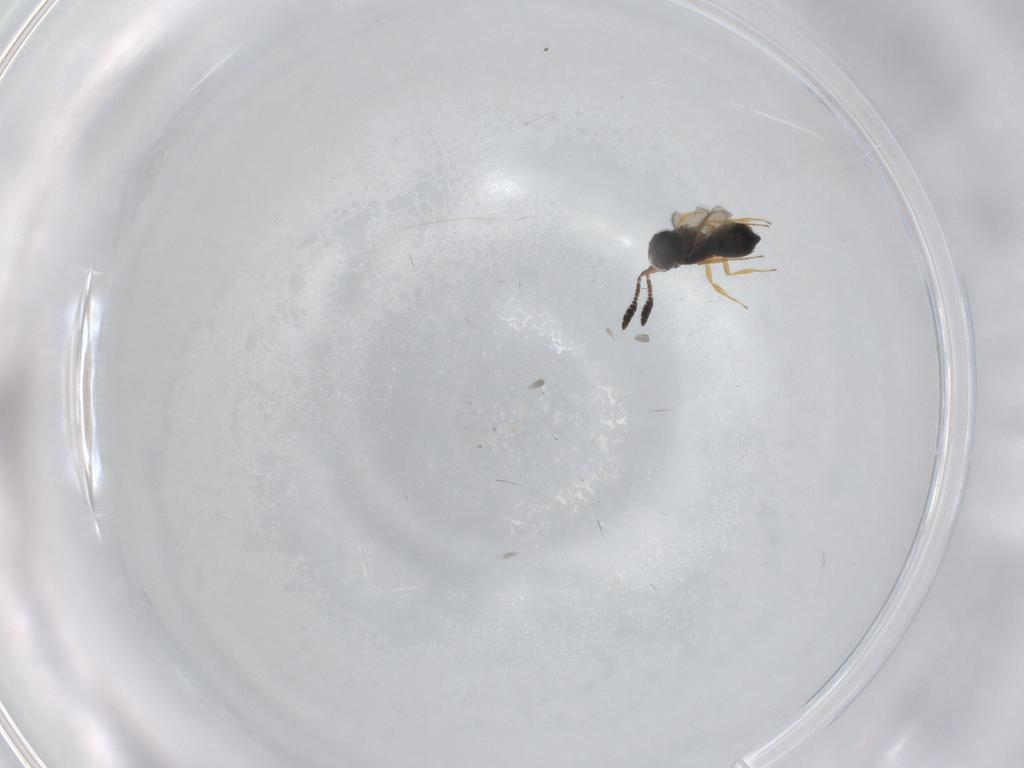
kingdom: Animalia
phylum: Arthropoda
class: Insecta
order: Hymenoptera
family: Scelionidae
